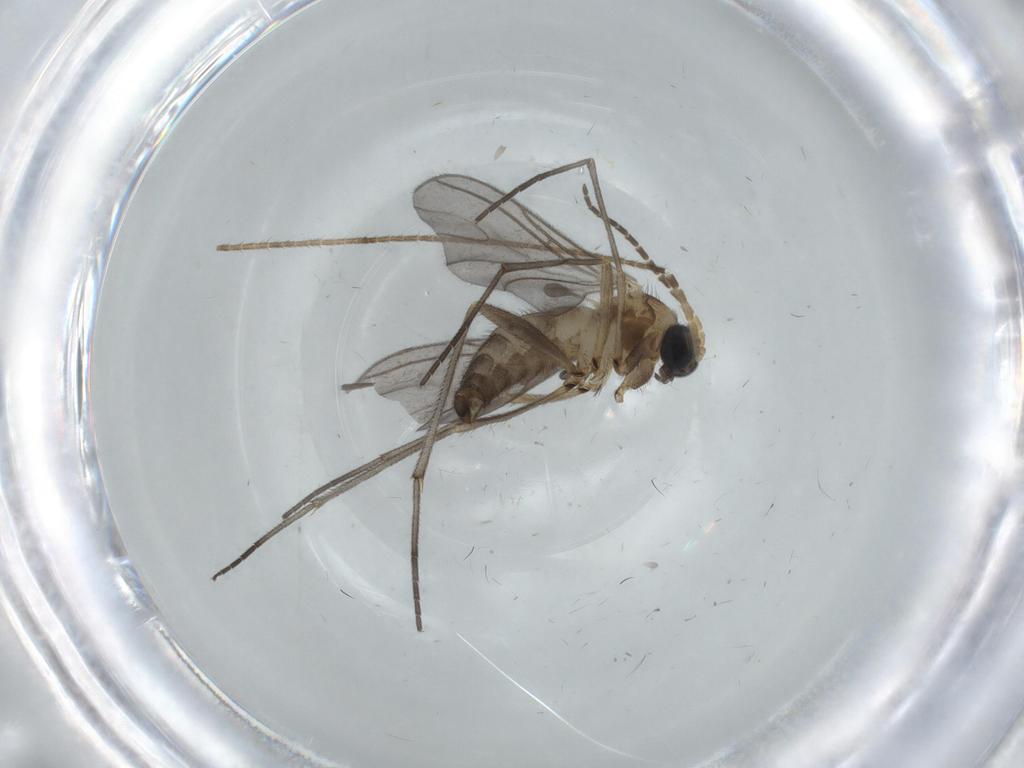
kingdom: Animalia
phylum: Arthropoda
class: Insecta
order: Diptera
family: Sciaridae
